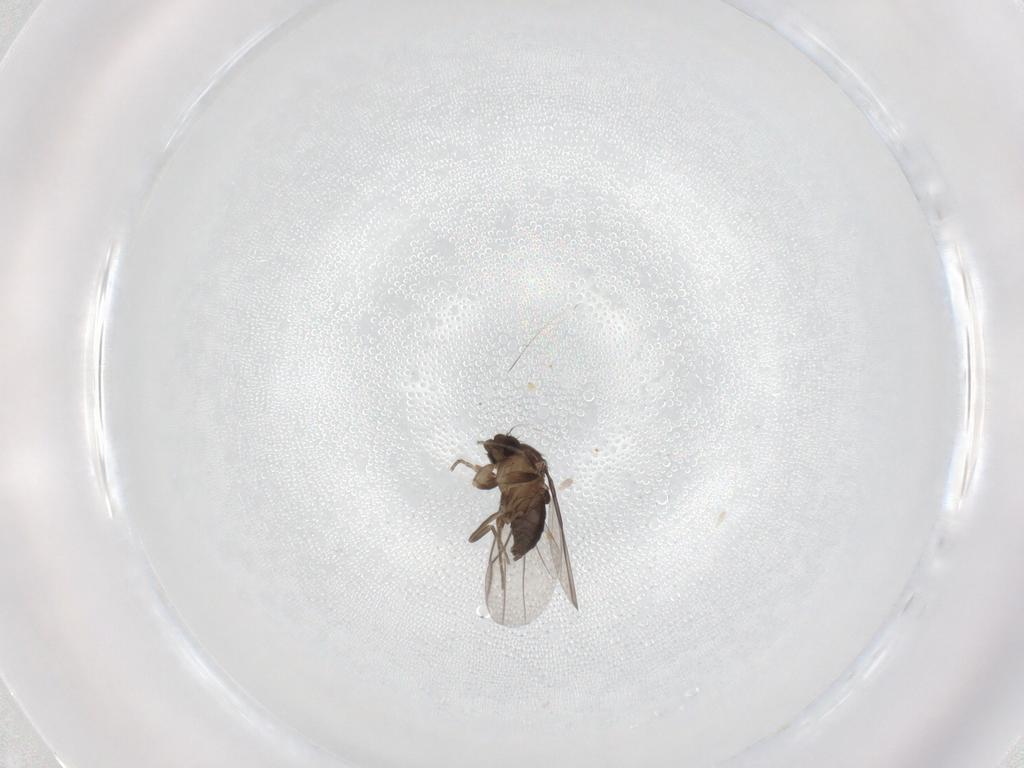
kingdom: Animalia
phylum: Arthropoda
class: Insecta
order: Diptera
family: Phoridae
